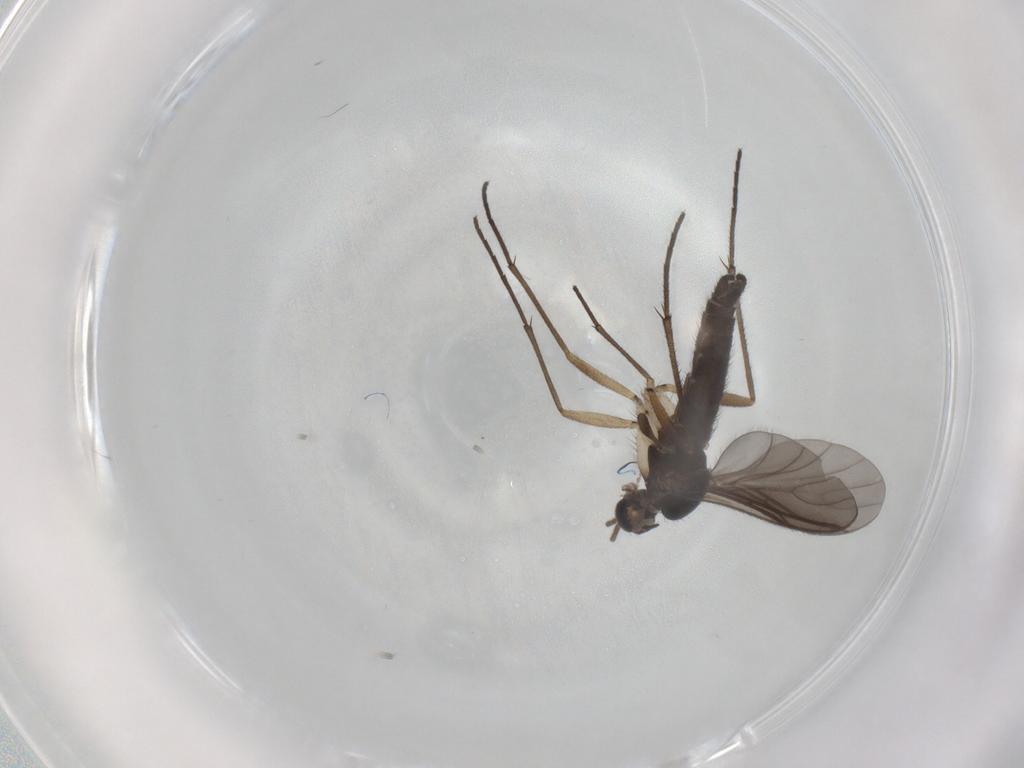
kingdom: Animalia
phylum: Arthropoda
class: Insecta
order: Diptera
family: Sciaridae
